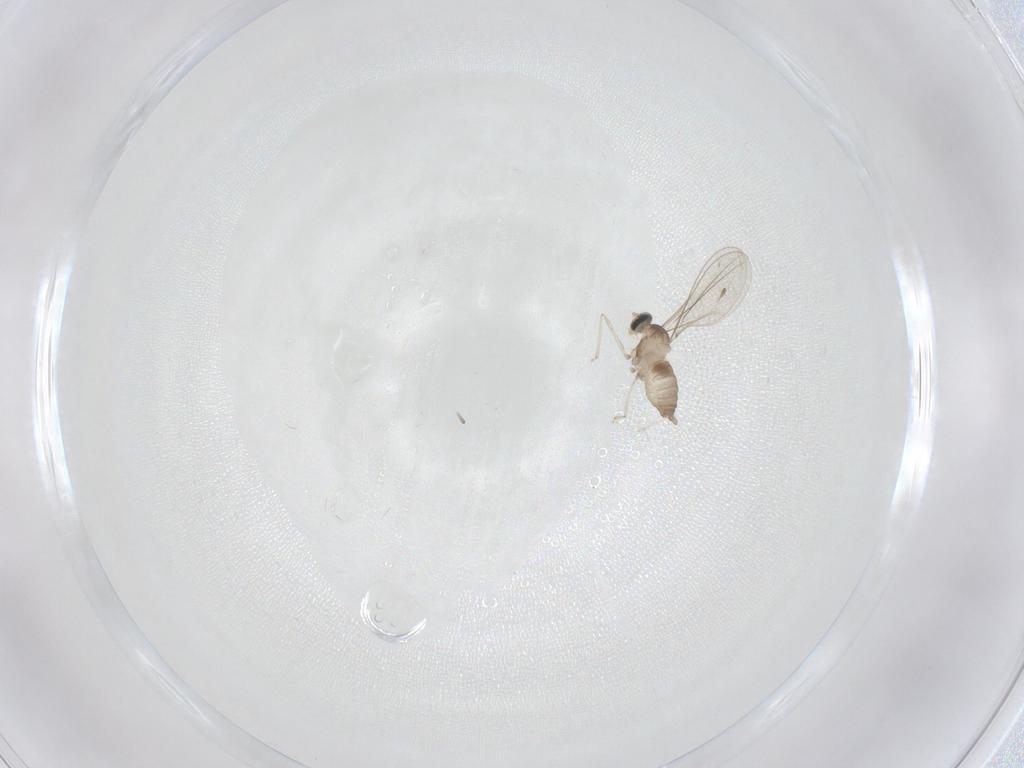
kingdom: Animalia
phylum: Arthropoda
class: Insecta
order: Diptera
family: Cecidomyiidae
